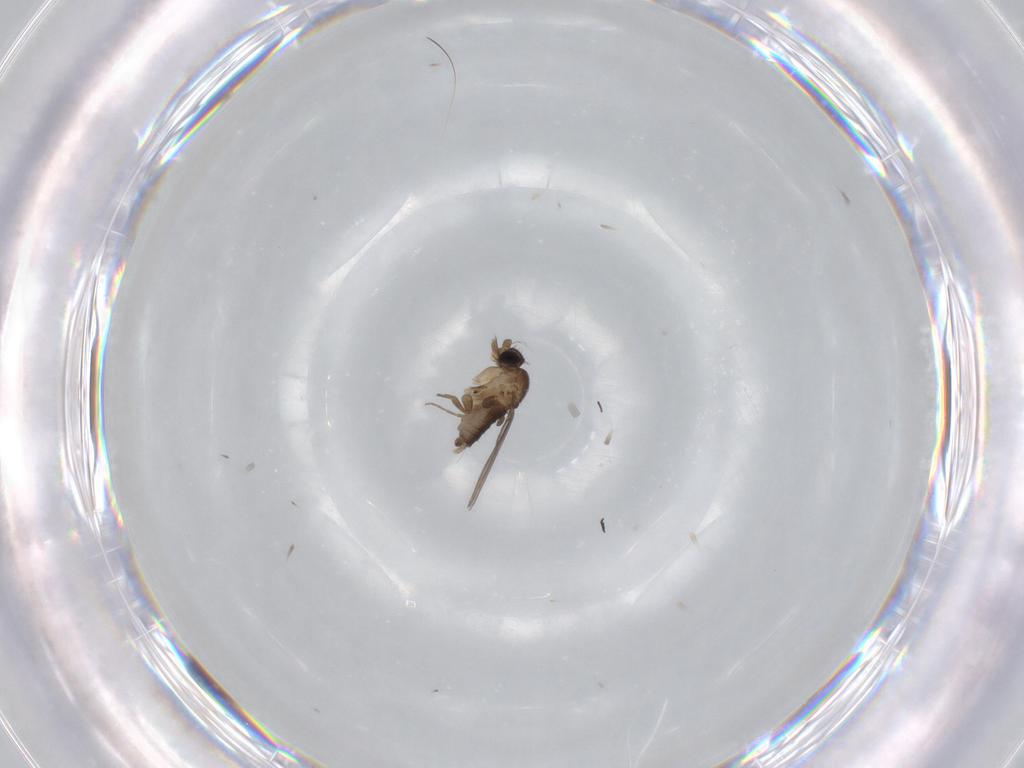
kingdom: Animalia
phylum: Arthropoda
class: Insecta
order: Diptera
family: Phoridae
